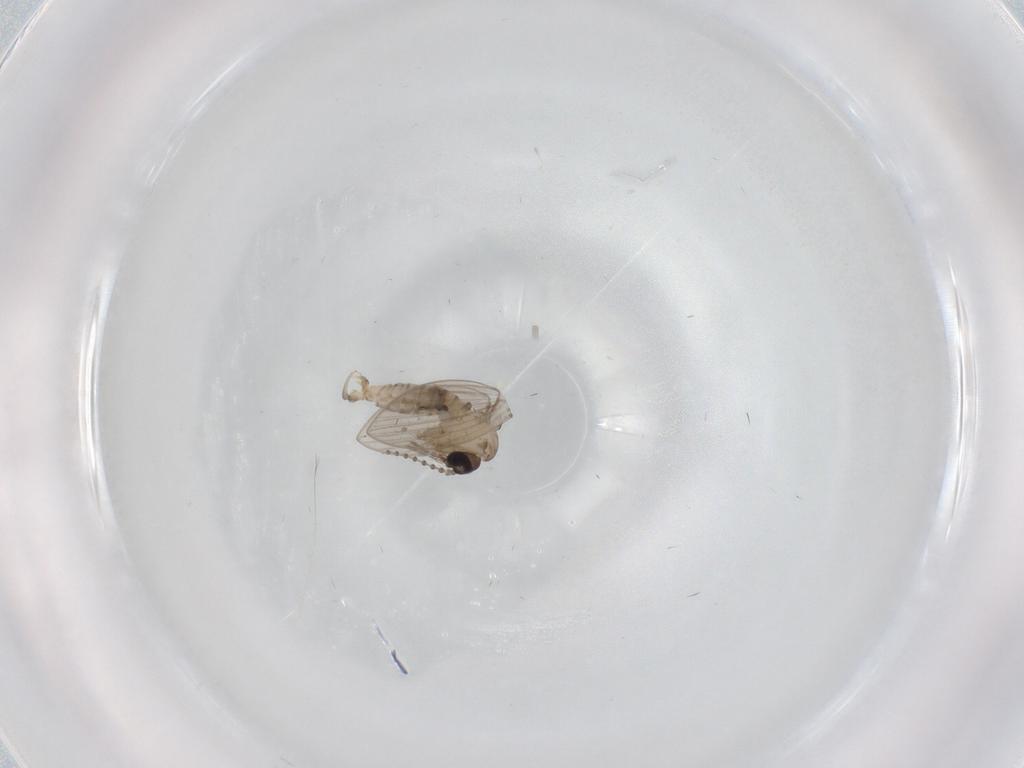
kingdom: Animalia
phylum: Arthropoda
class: Insecta
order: Diptera
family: Psychodidae
